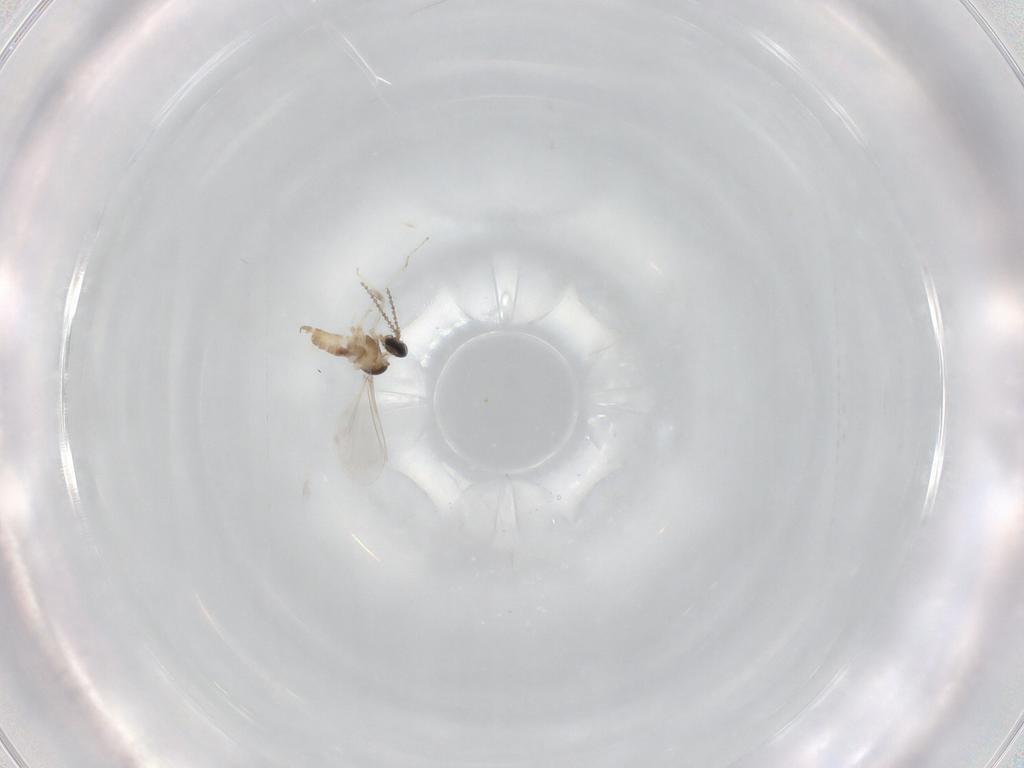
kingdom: Animalia
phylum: Arthropoda
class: Insecta
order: Diptera
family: Cecidomyiidae
